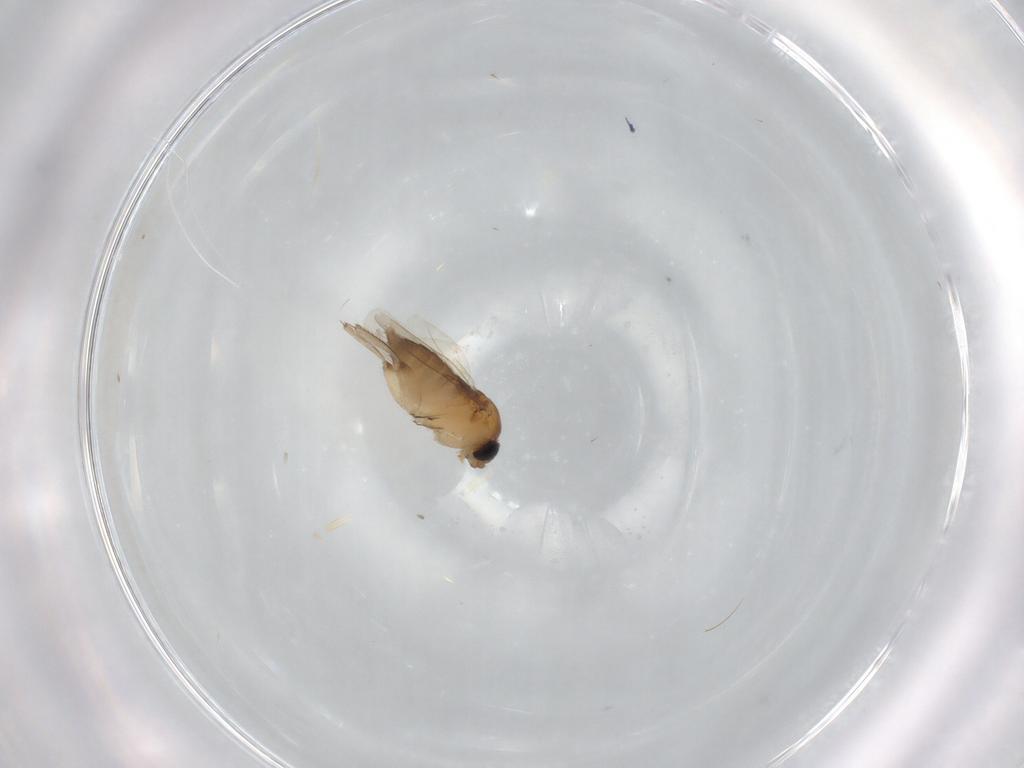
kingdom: Animalia
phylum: Arthropoda
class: Insecta
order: Diptera
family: Phoridae
